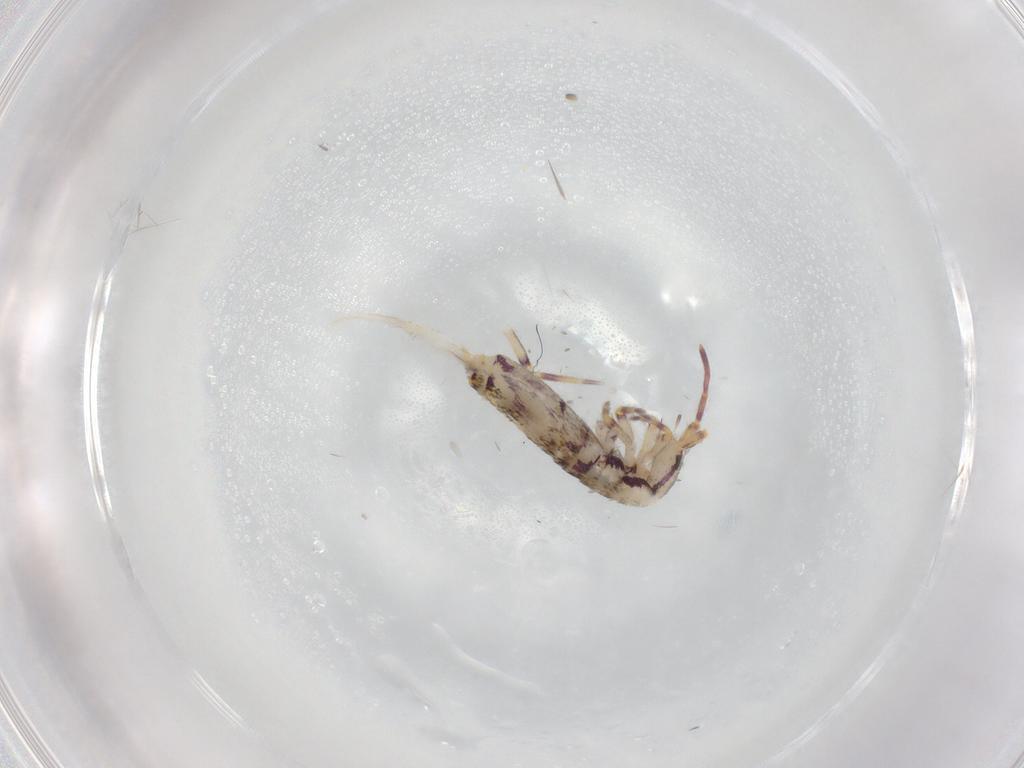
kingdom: Animalia
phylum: Arthropoda
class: Collembola
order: Entomobryomorpha
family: Entomobryidae
